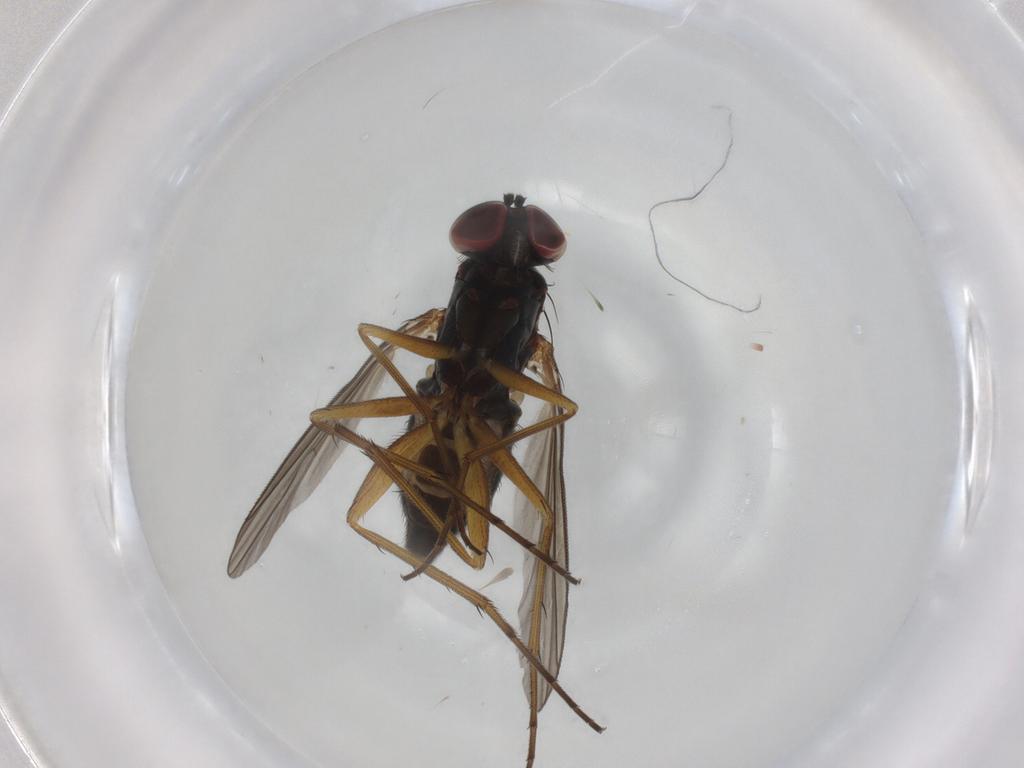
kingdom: Animalia
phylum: Arthropoda
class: Insecta
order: Diptera
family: Dolichopodidae
